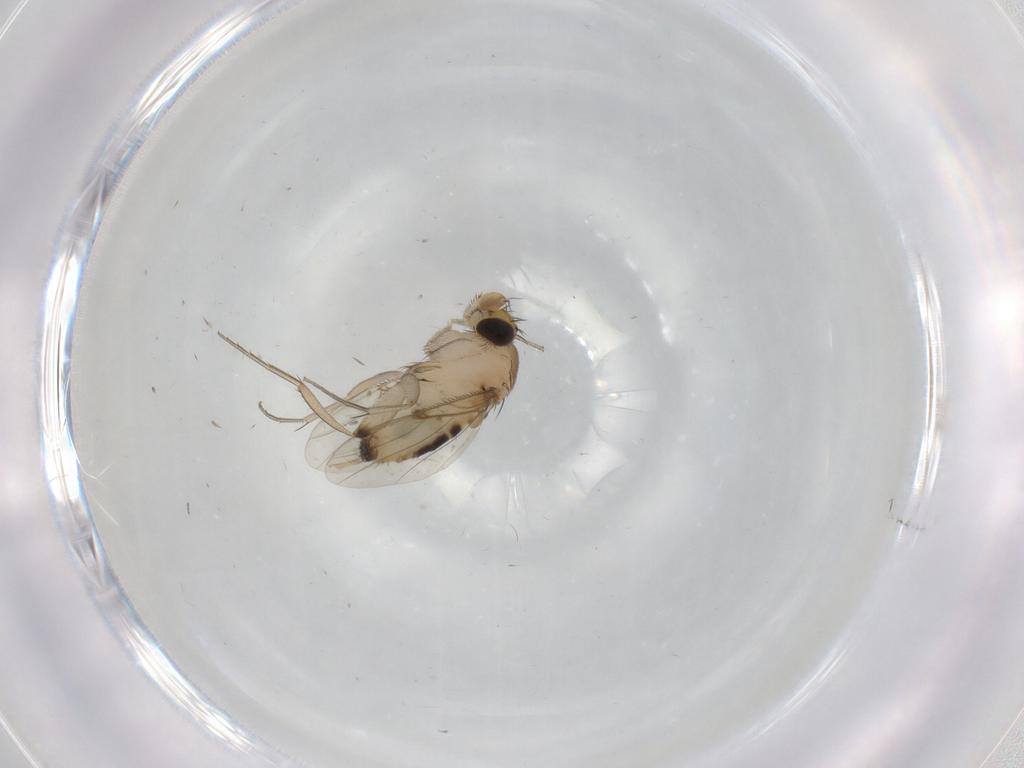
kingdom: Animalia
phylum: Arthropoda
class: Insecta
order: Diptera
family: Phoridae
